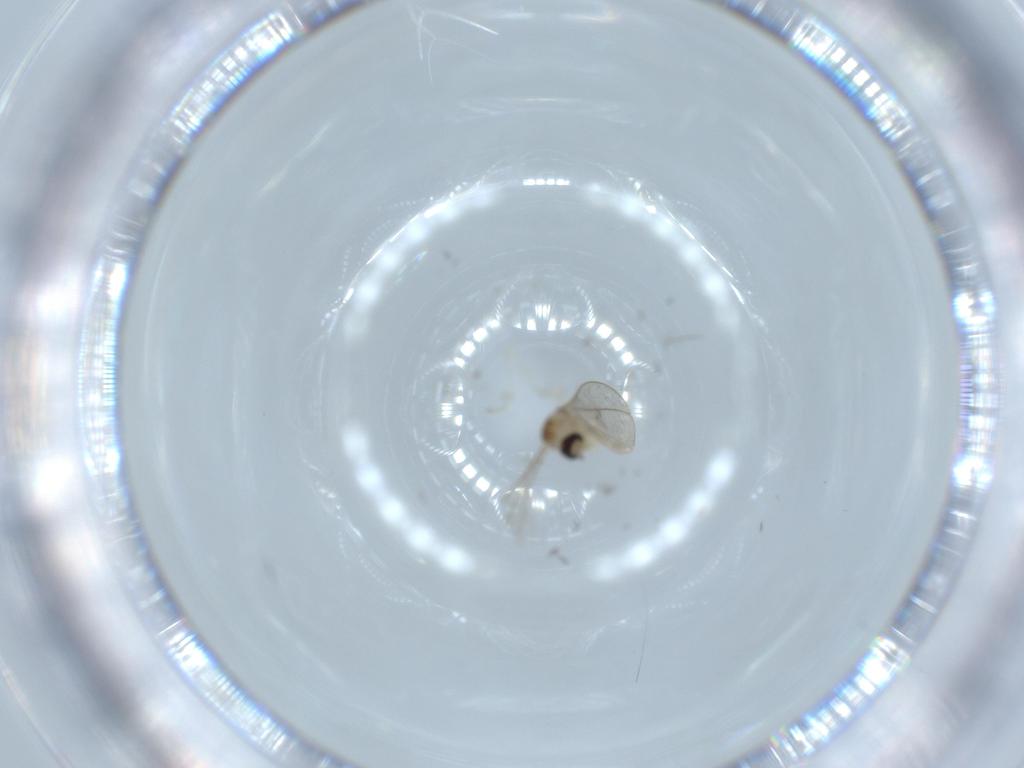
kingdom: Animalia
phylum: Arthropoda
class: Insecta
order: Diptera
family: Cecidomyiidae
